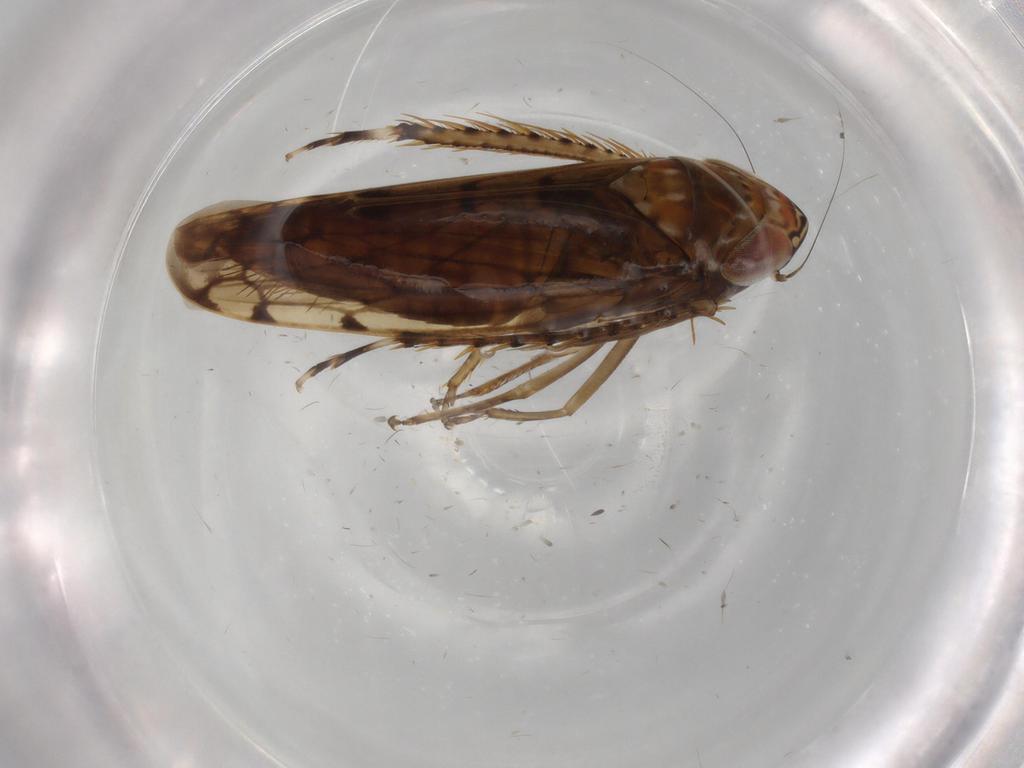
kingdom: Animalia
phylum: Arthropoda
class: Insecta
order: Hemiptera
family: Cicadellidae
